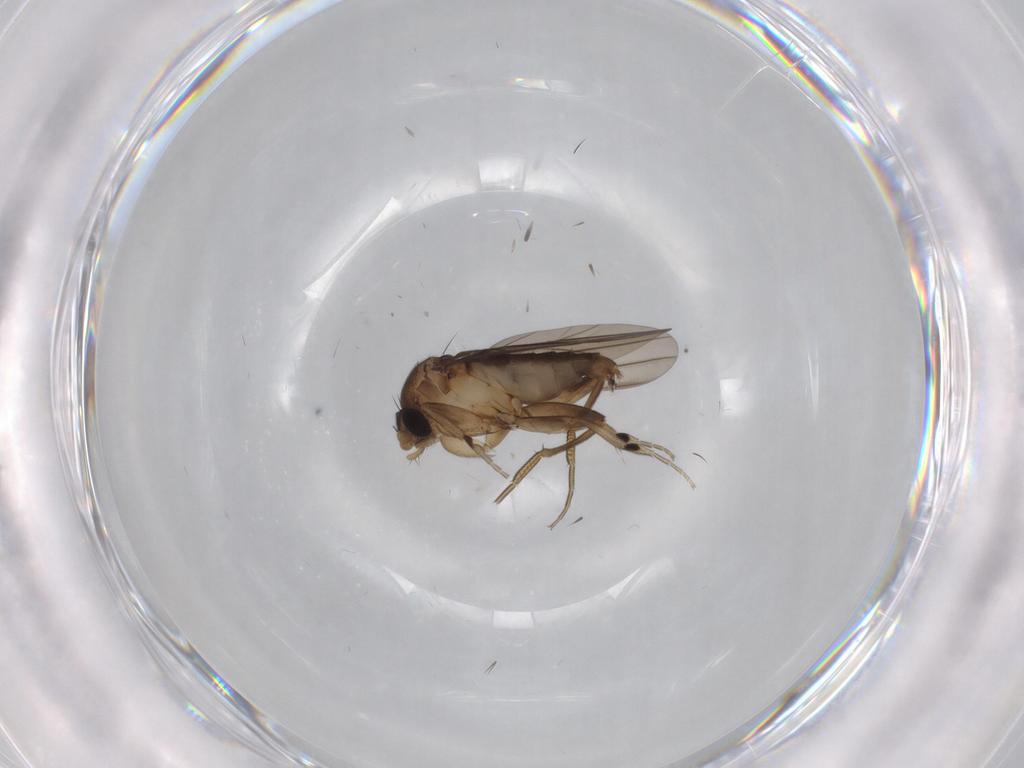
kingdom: Animalia
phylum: Arthropoda
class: Insecta
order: Diptera
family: Phoridae
